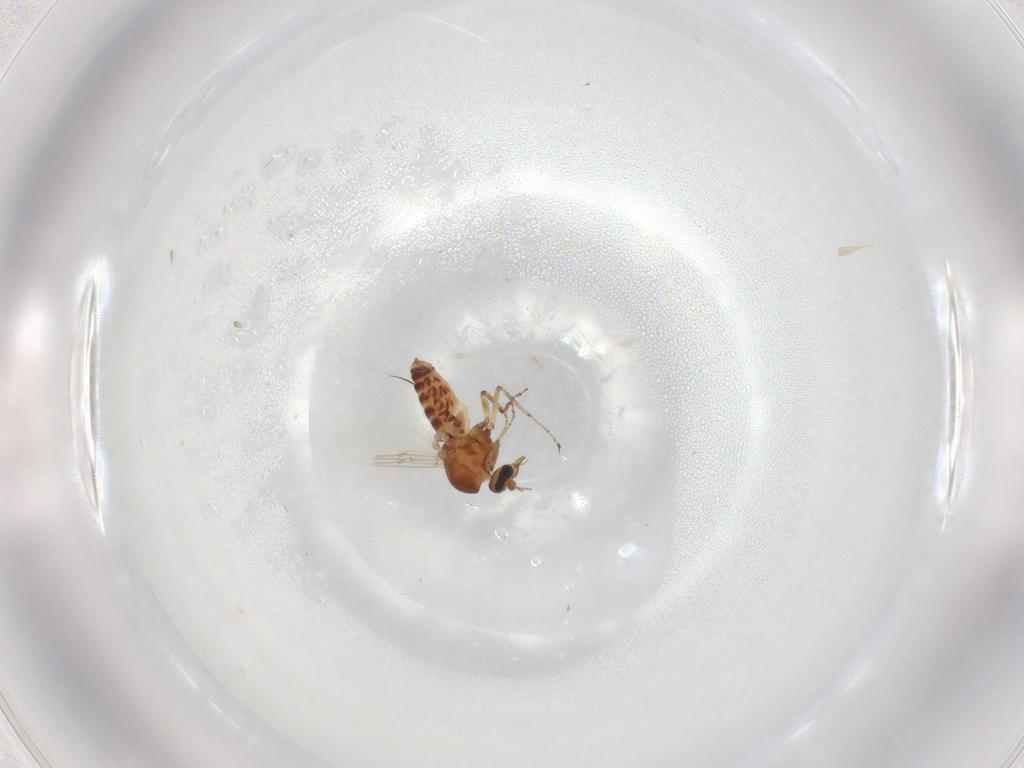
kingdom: Animalia
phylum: Arthropoda
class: Insecta
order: Diptera
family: Ceratopogonidae
